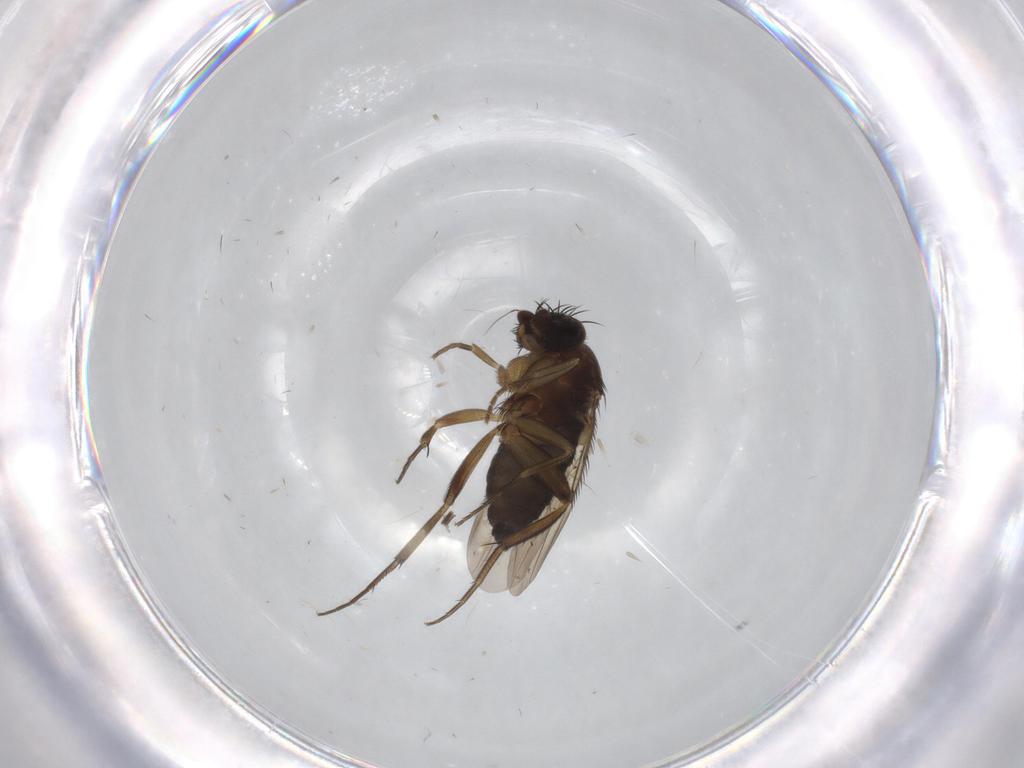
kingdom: Animalia
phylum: Arthropoda
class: Insecta
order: Diptera
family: Phoridae
